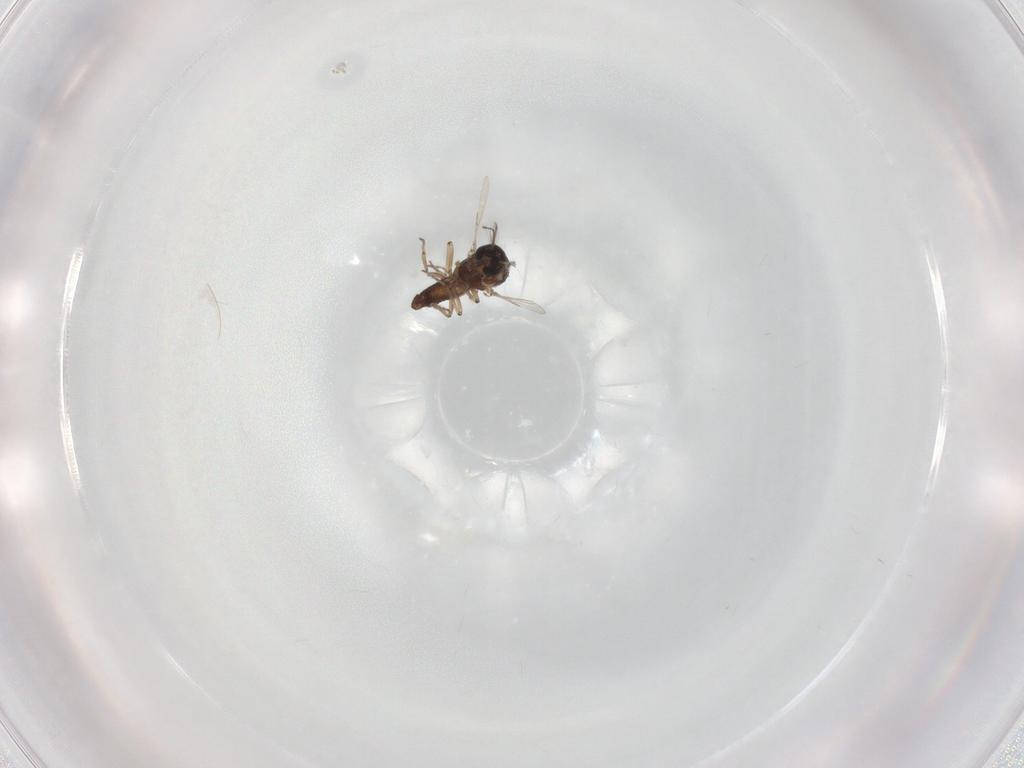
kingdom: Animalia
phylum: Arthropoda
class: Insecta
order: Diptera
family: Ceratopogonidae
